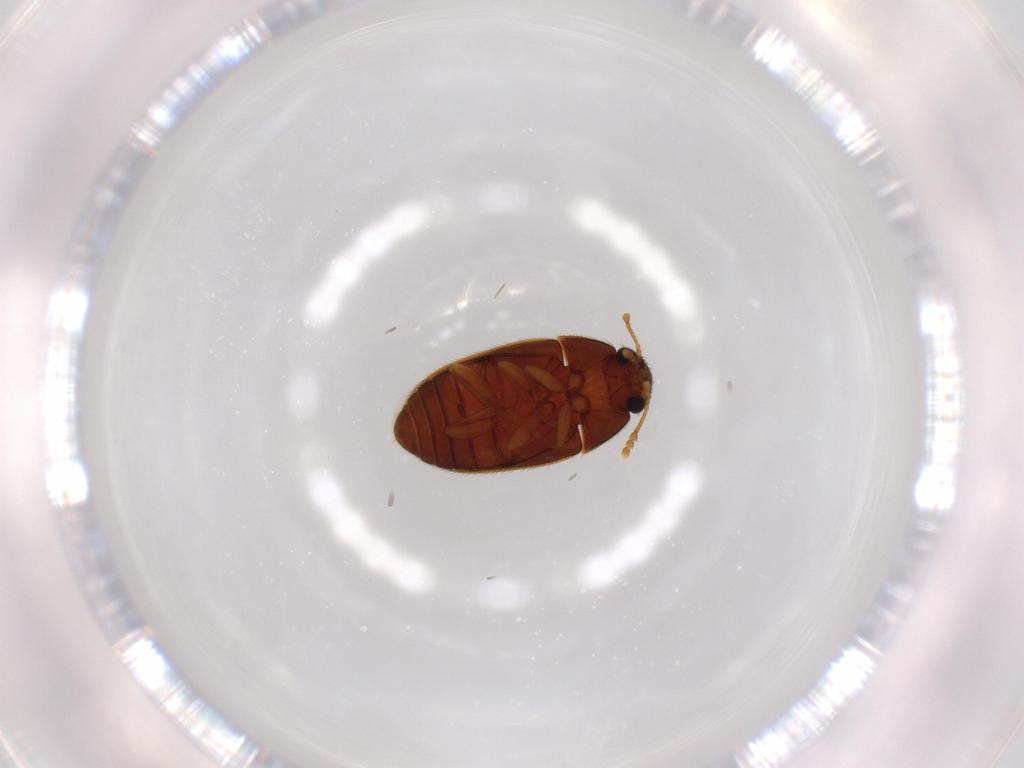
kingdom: Animalia
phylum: Arthropoda
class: Insecta
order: Coleoptera
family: Mycetophagidae
